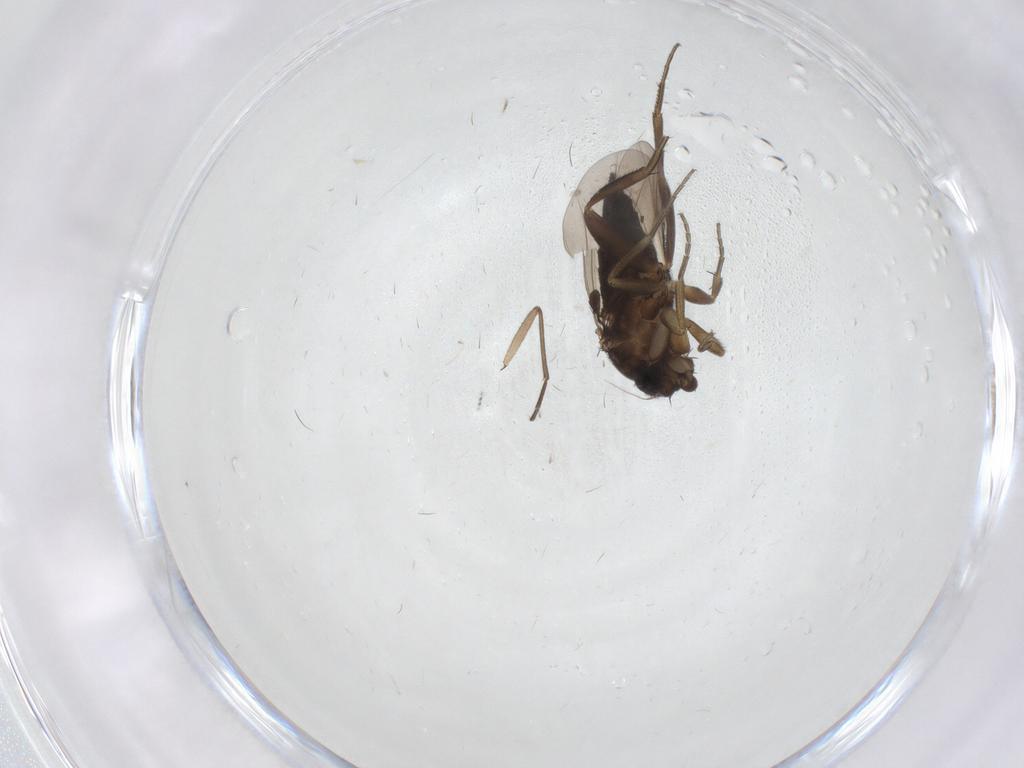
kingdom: Animalia
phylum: Arthropoda
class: Insecta
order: Diptera
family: Phoridae
